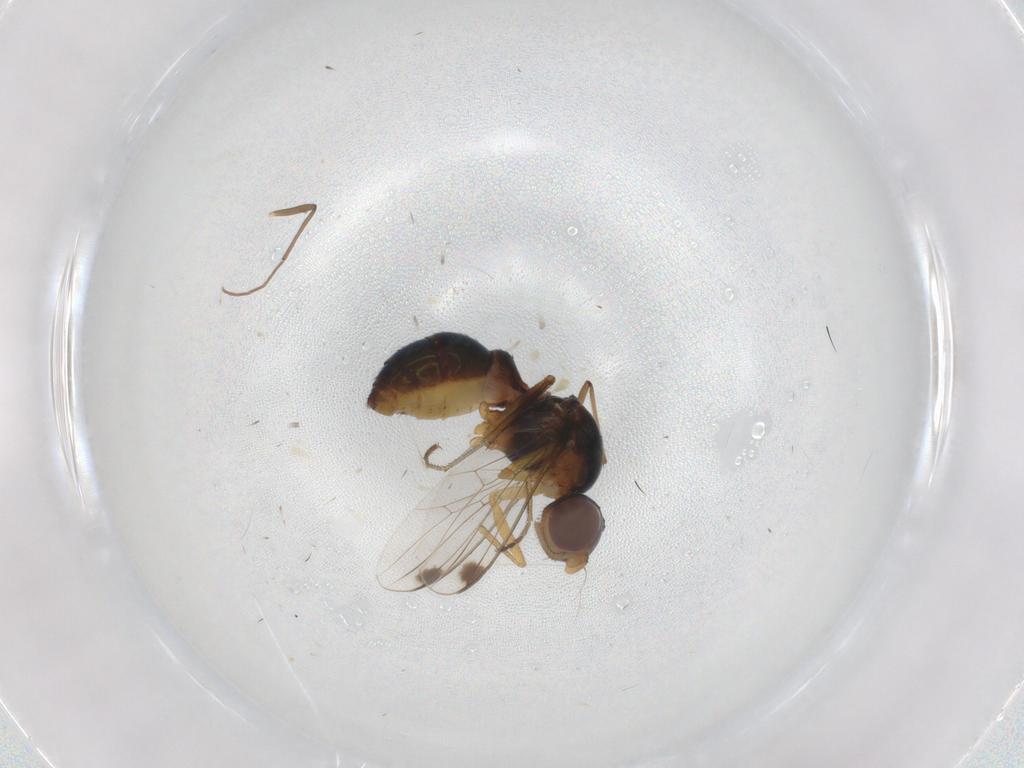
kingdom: Animalia
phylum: Arthropoda
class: Insecta
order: Diptera
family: Sepsidae
